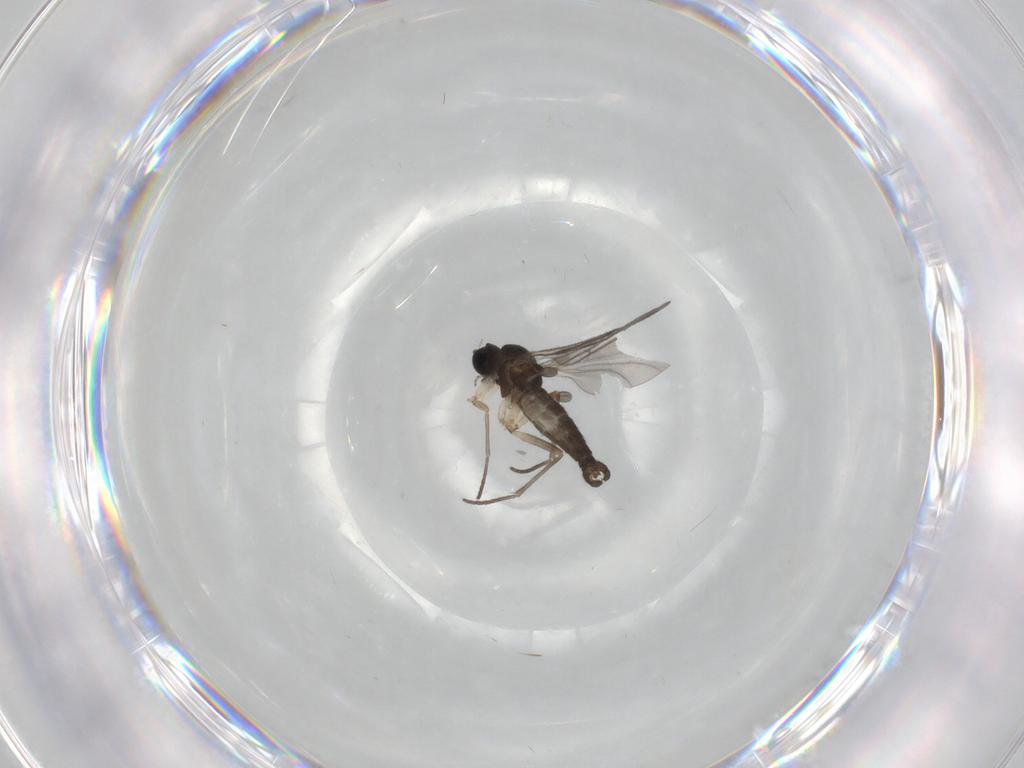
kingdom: Animalia
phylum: Arthropoda
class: Insecta
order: Diptera
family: Sciaridae
